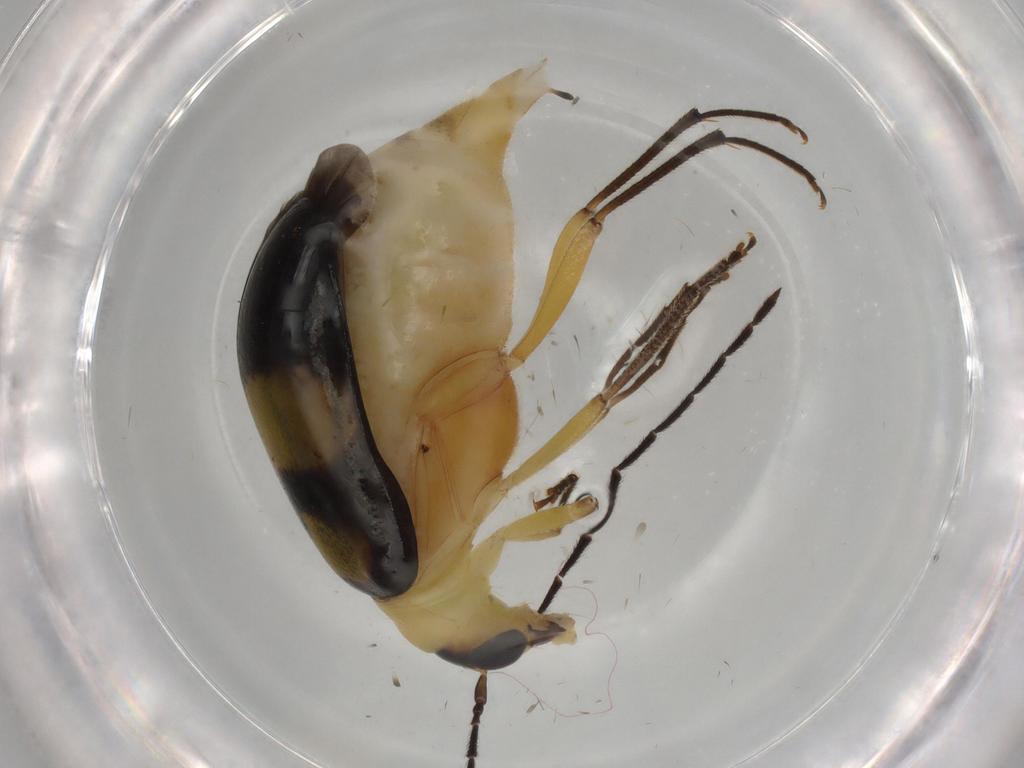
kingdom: Animalia
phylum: Arthropoda
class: Insecta
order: Coleoptera
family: Chrysomelidae
